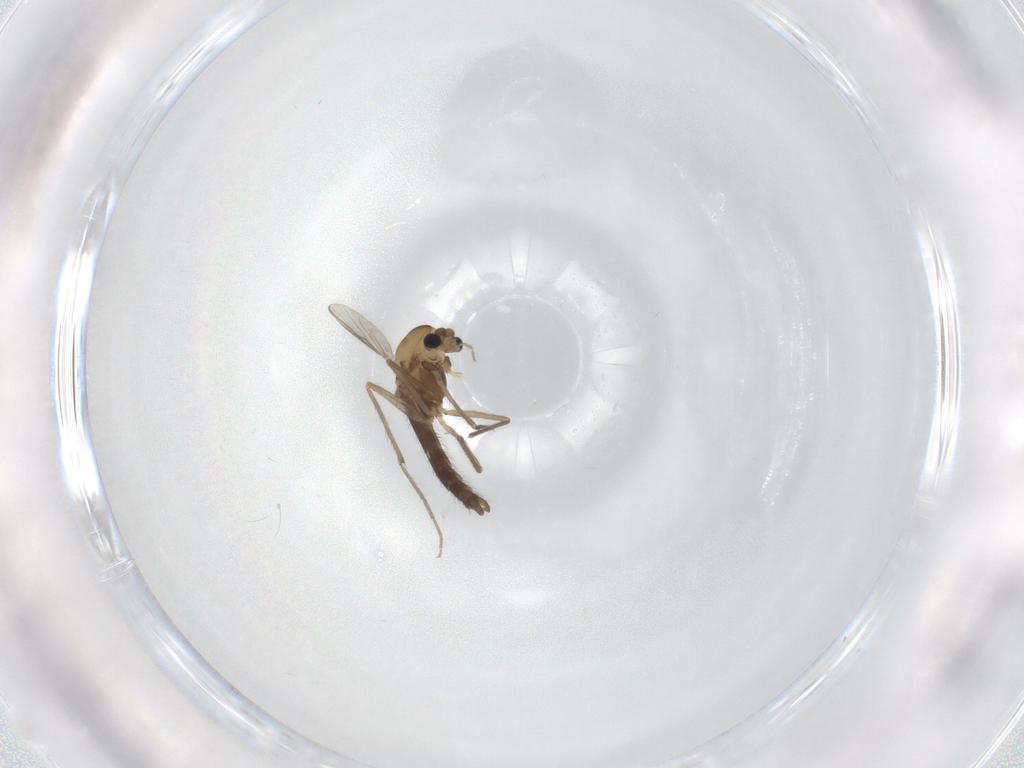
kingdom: Animalia
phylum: Arthropoda
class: Insecta
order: Diptera
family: Chironomidae
